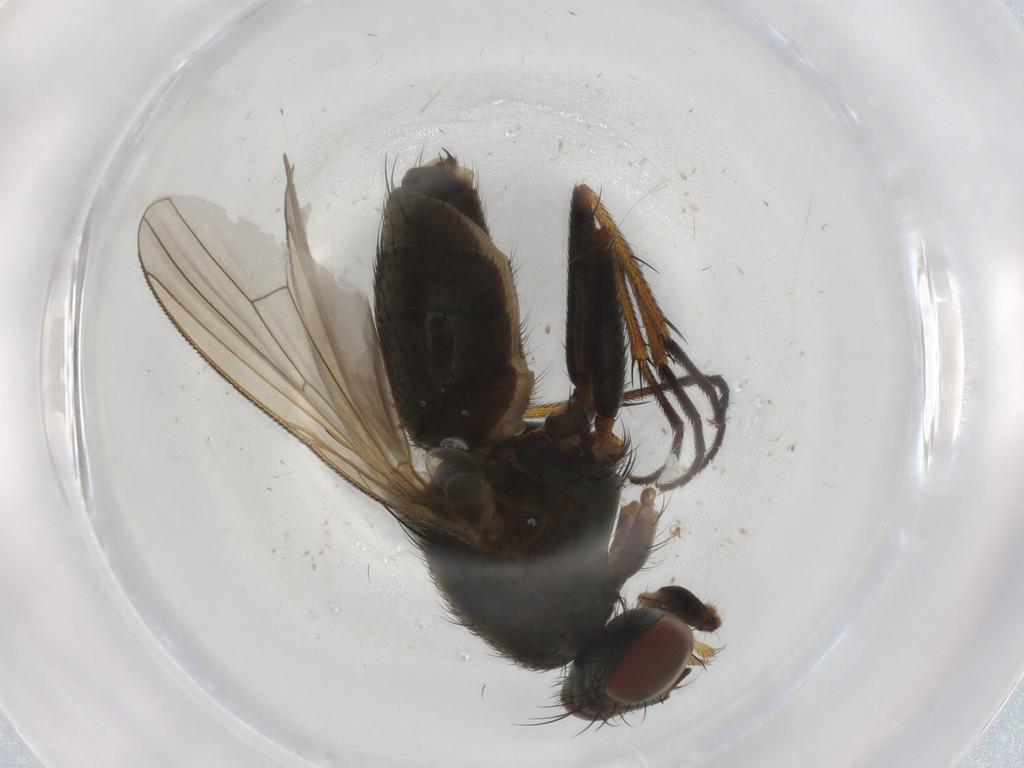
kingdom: Animalia
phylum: Arthropoda
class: Insecta
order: Diptera
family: Muscidae
